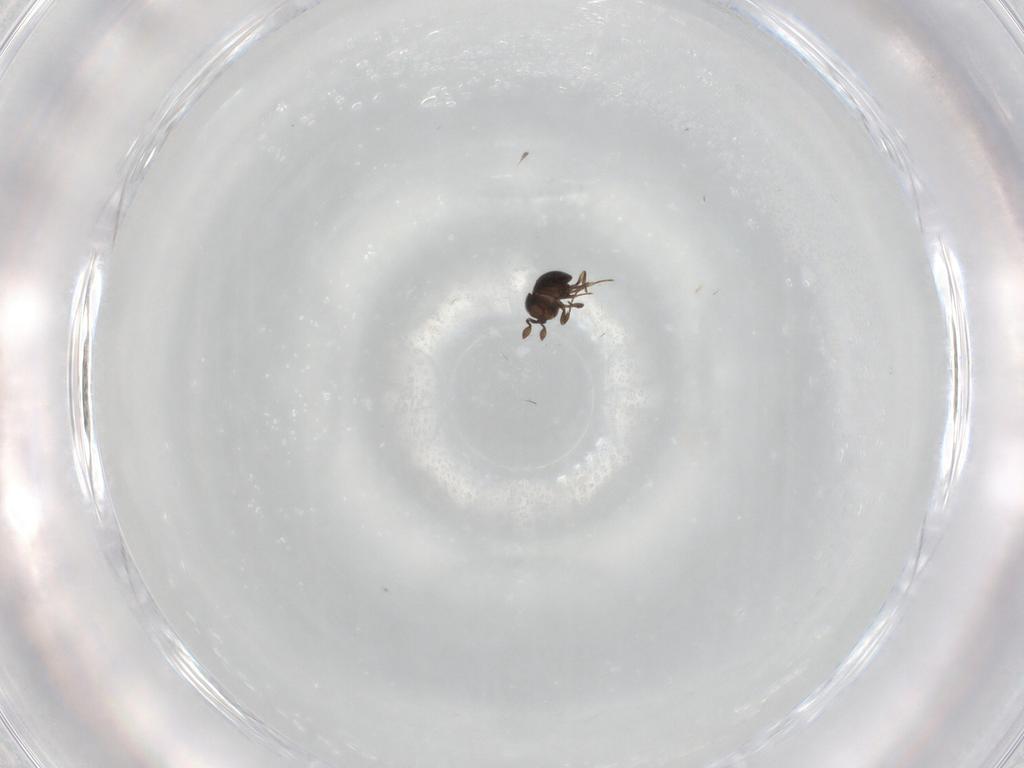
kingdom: Animalia
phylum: Arthropoda
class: Insecta
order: Hymenoptera
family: Scelionidae
